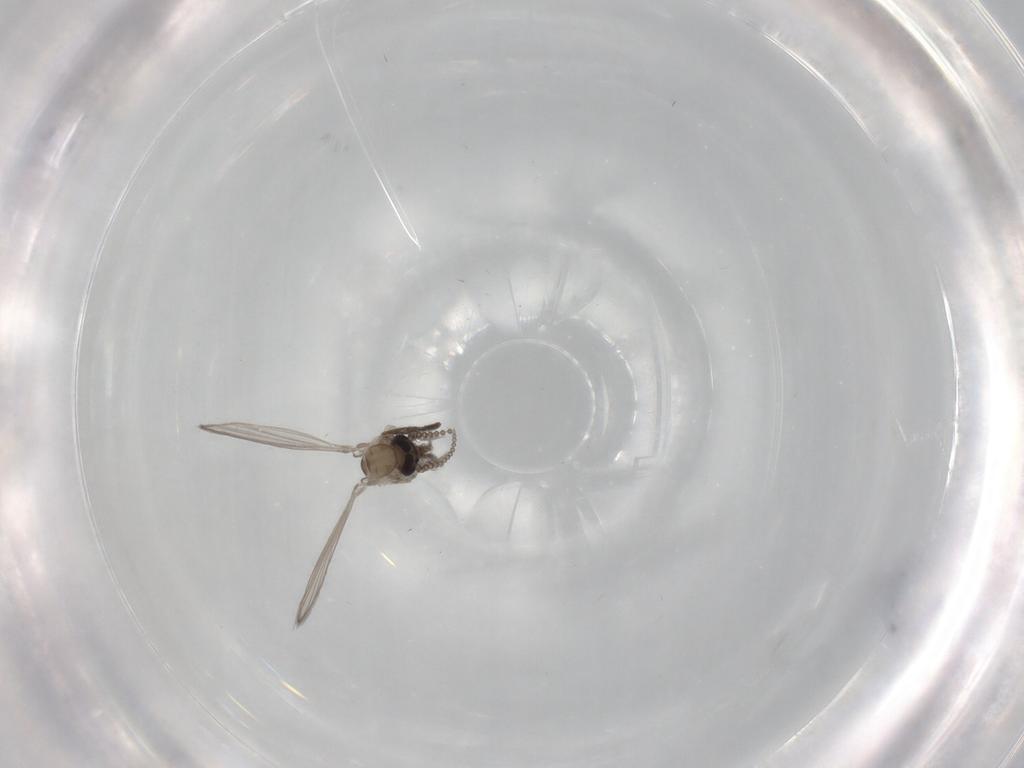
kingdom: Animalia
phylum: Arthropoda
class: Insecta
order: Diptera
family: Psychodidae
